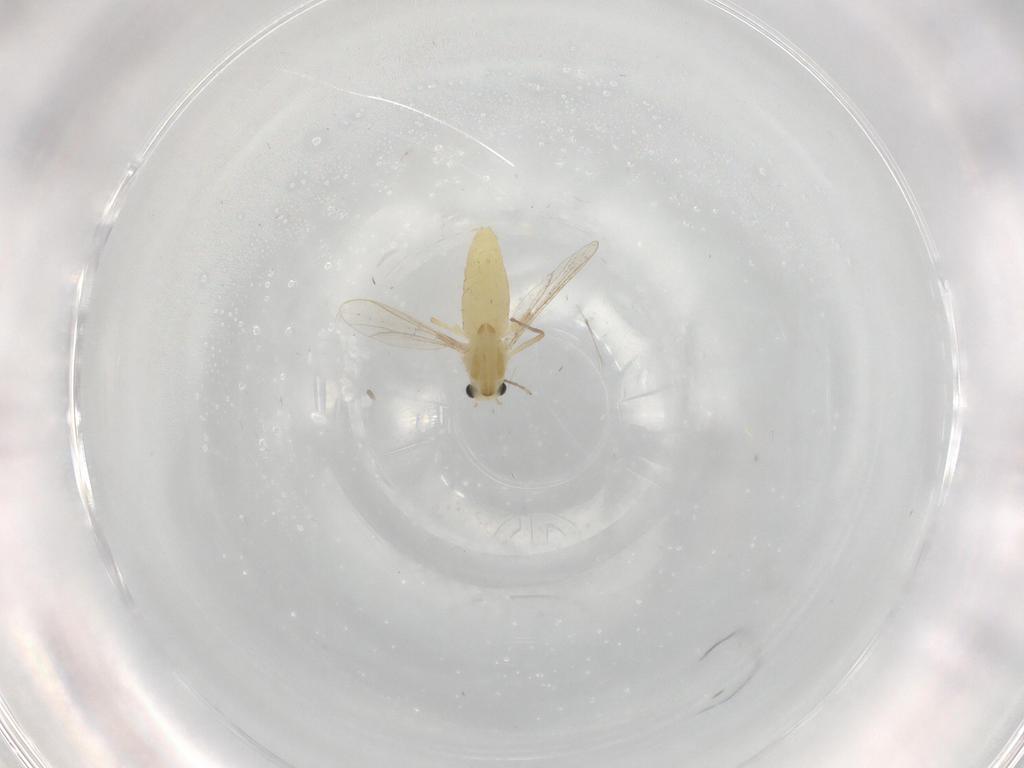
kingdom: Animalia
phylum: Arthropoda
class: Insecta
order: Diptera
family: Chironomidae
